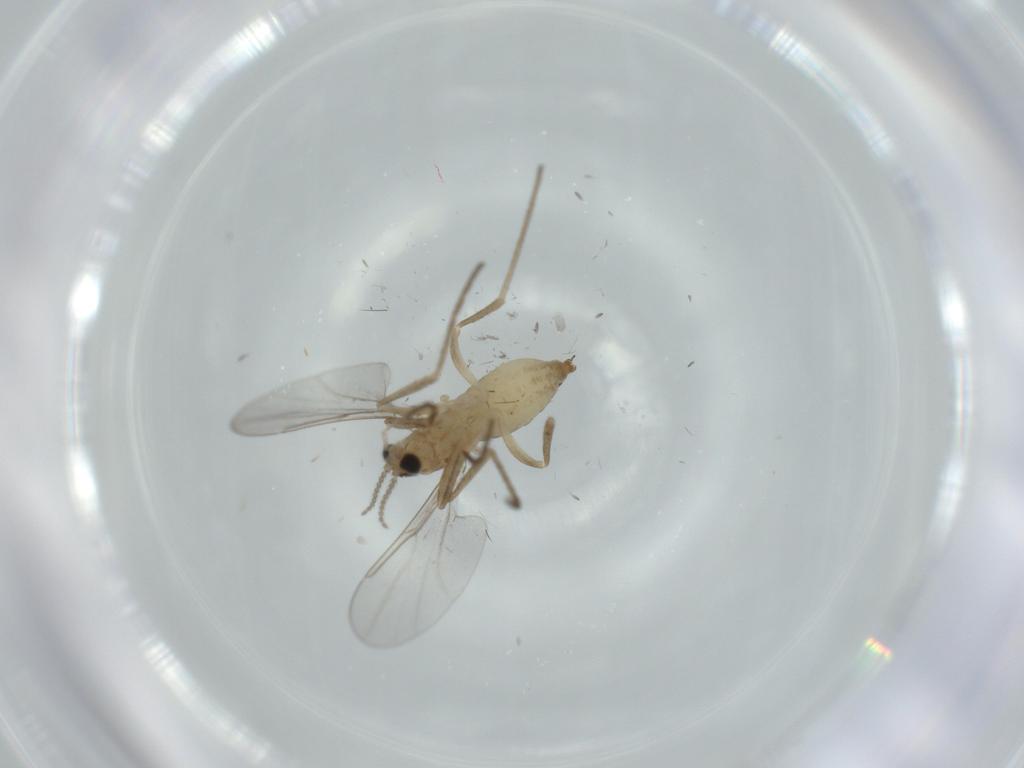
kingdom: Animalia
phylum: Arthropoda
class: Insecta
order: Diptera
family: Cecidomyiidae
